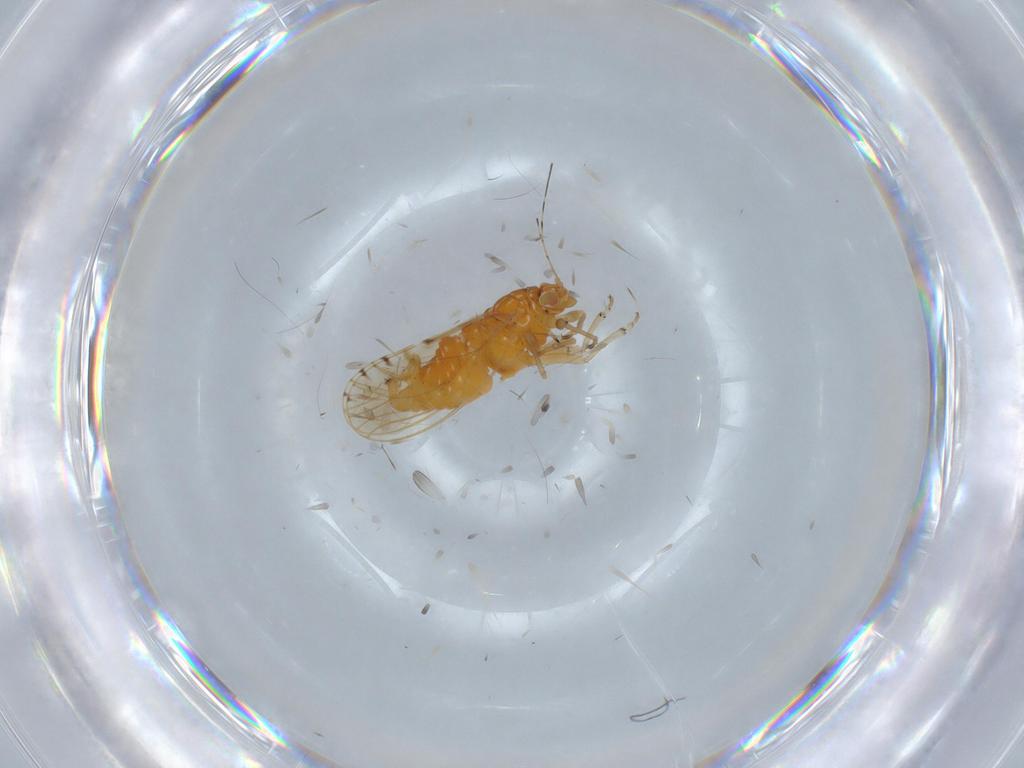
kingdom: Animalia
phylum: Arthropoda
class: Insecta
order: Hemiptera
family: Cicadellidae
